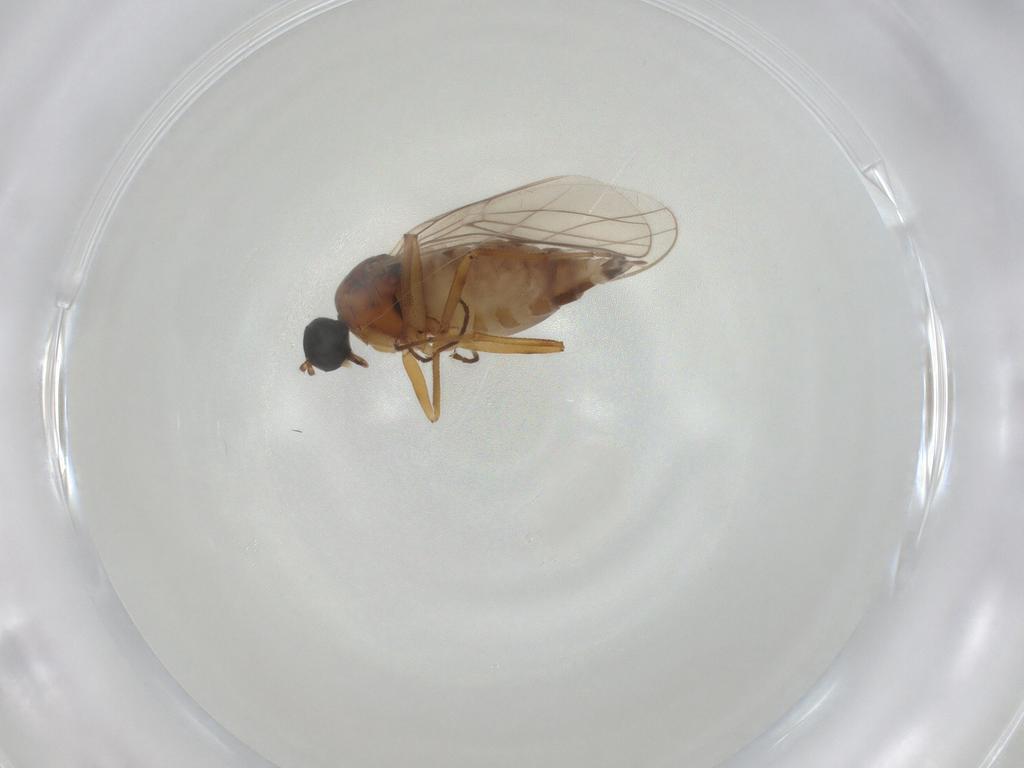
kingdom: Animalia
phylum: Arthropoda
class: Insecta
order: Diptera
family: Hybotidae
